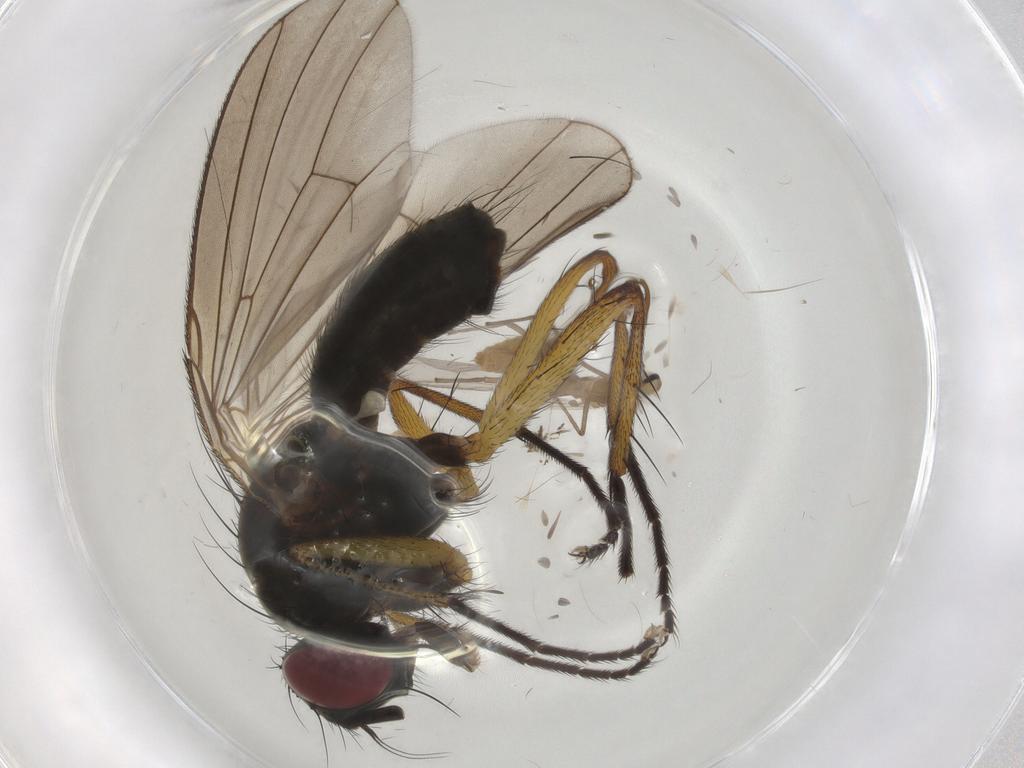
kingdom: Animalia
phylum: Arthropoda
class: Insecta
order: Diptera
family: Muscidae
